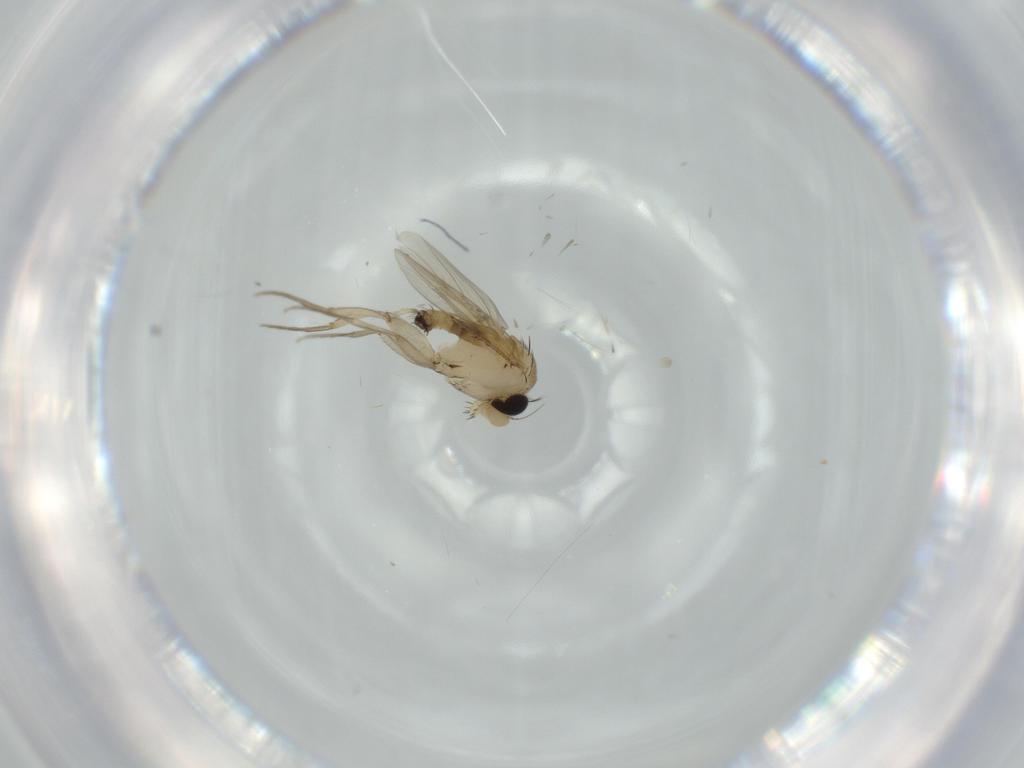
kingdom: Animalia
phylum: Arthropoda
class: Insecta
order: Diptera
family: Phoridae
